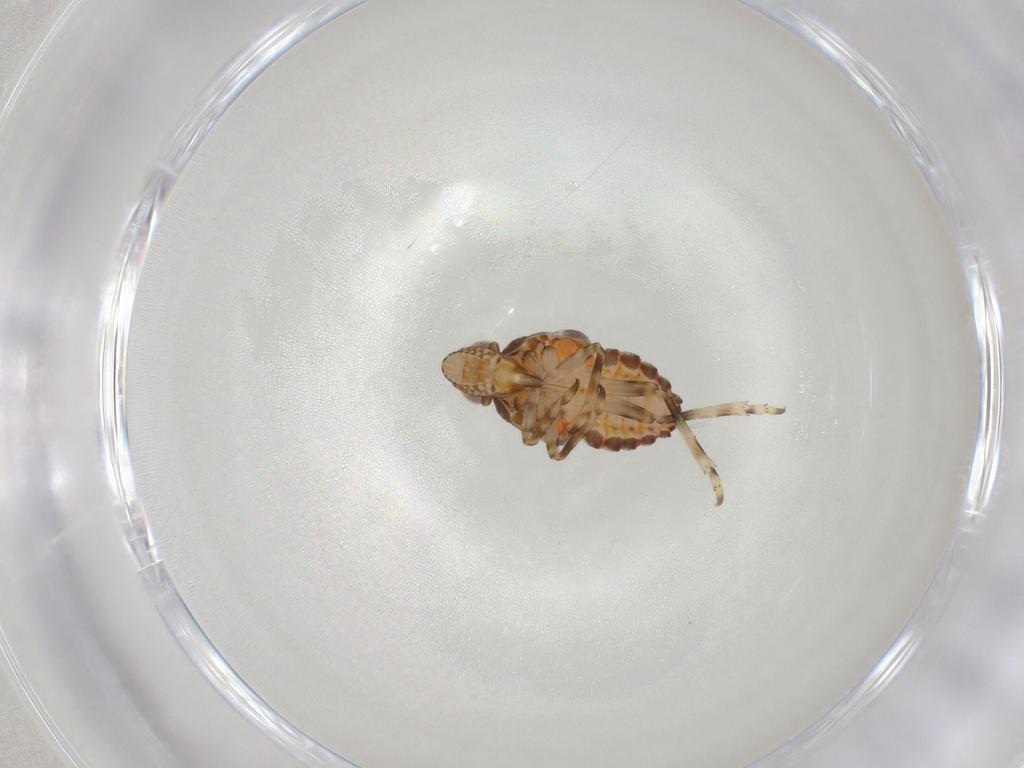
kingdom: Animalia
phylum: Arthropoda
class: Insecta
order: Hemiptera
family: Tropiduchidae
